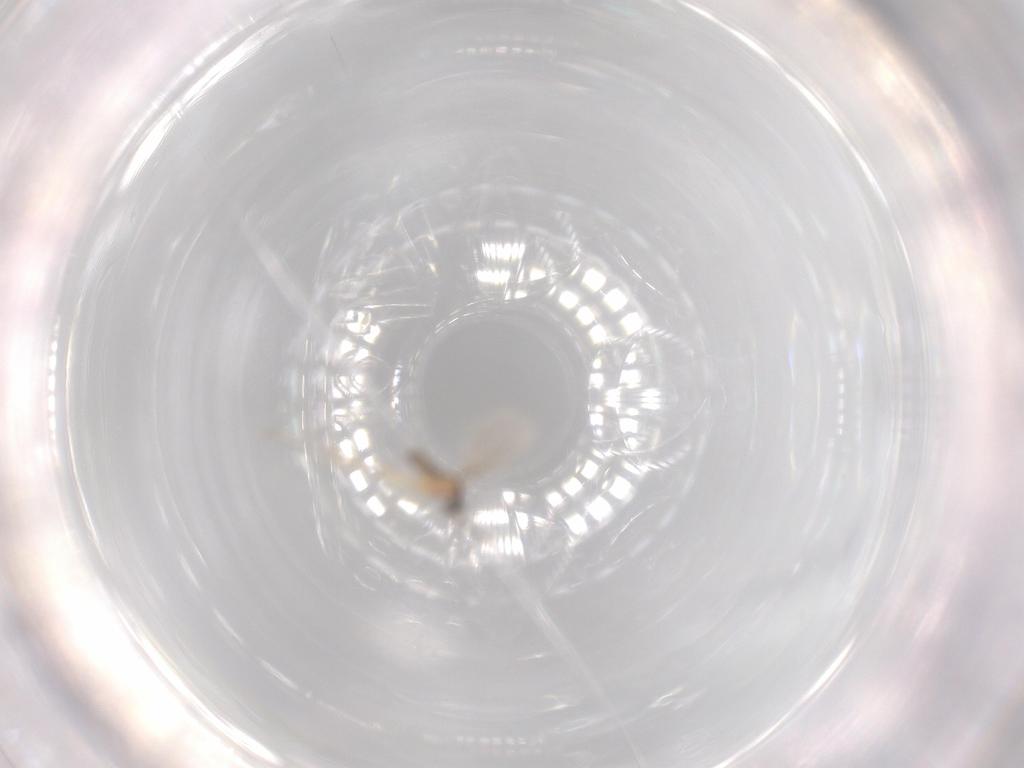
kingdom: Animalia
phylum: Arthropoda
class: Insecta
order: Diptera
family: Cecidomyiidae
